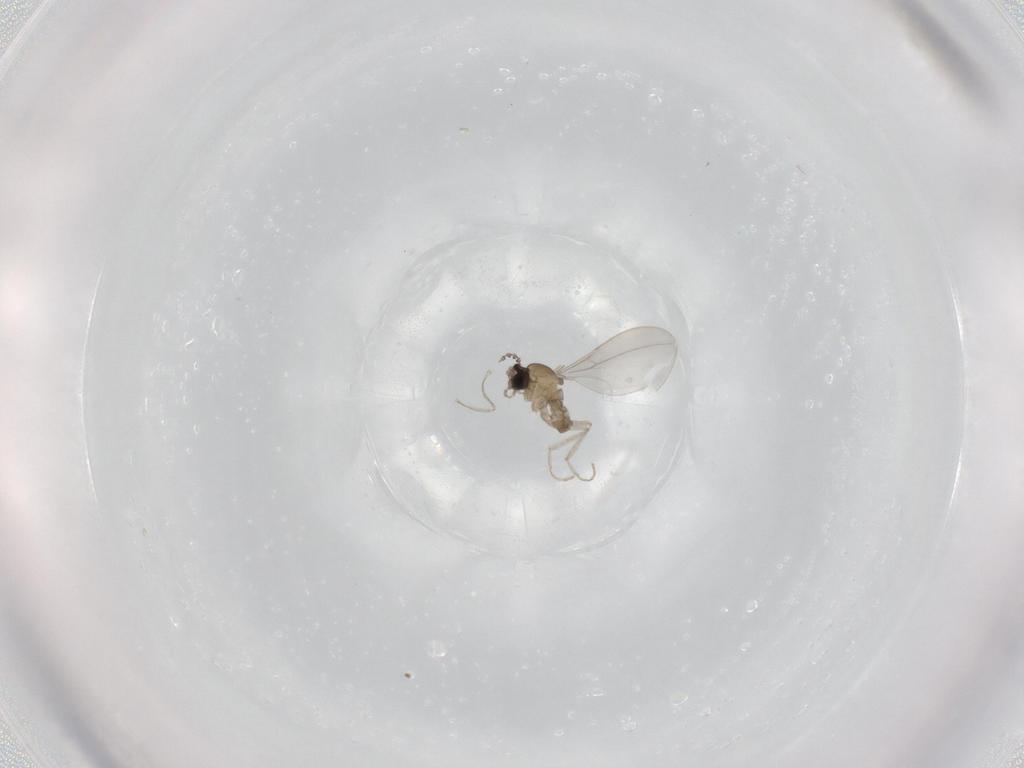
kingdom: Animalia
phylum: Arthropoda
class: Insecta
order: Diptera
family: Cecidomyiidae
